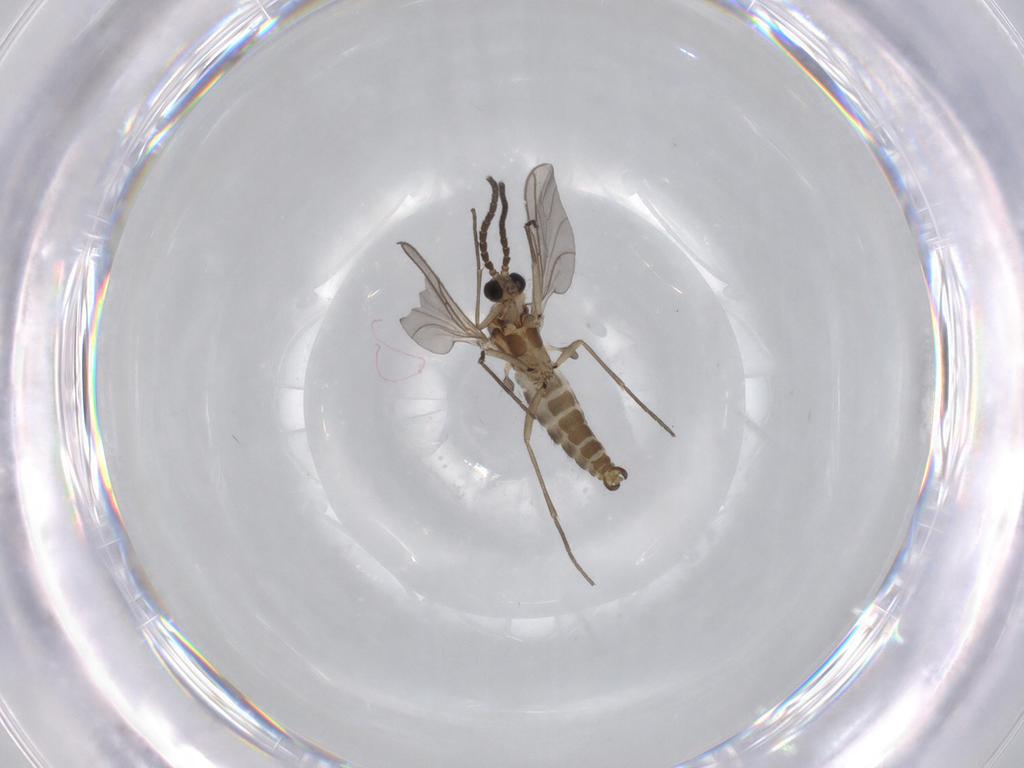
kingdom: Animalia
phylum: Arthropoda
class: Insecta
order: Diptera
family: Sciaridae
